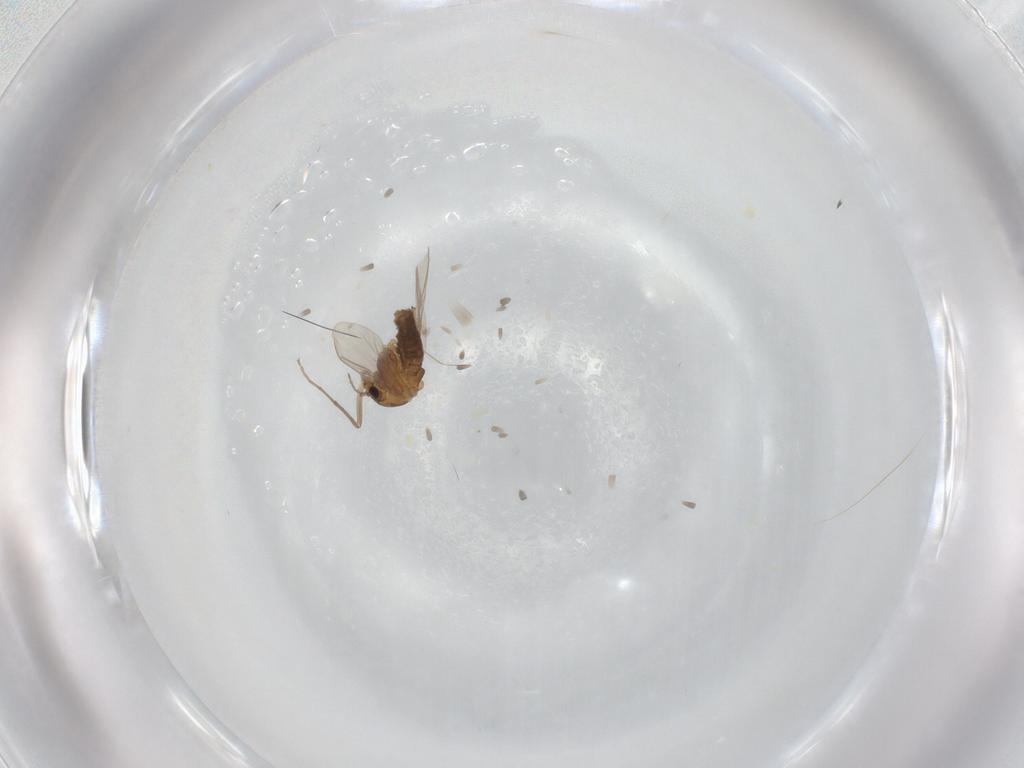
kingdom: Animalia
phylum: Arthropoda
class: Insecta
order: Diptera
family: Chironomidae
